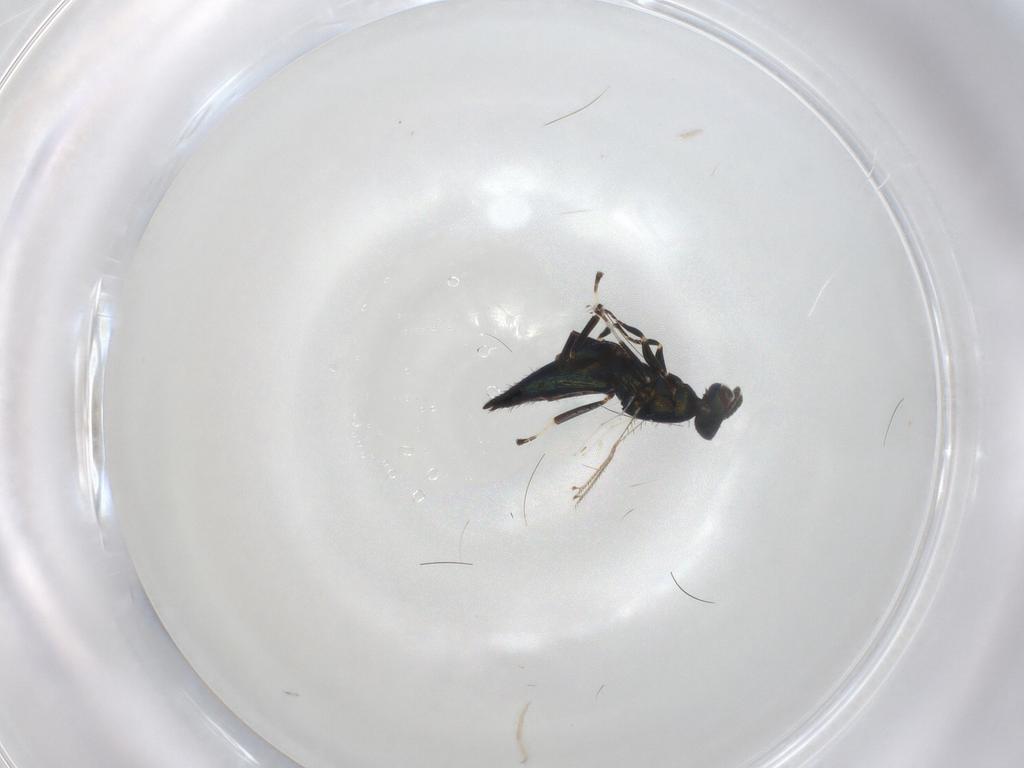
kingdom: Animalia
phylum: Arthropoda
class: Insecta
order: Hymenoptera
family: Eulophidae
